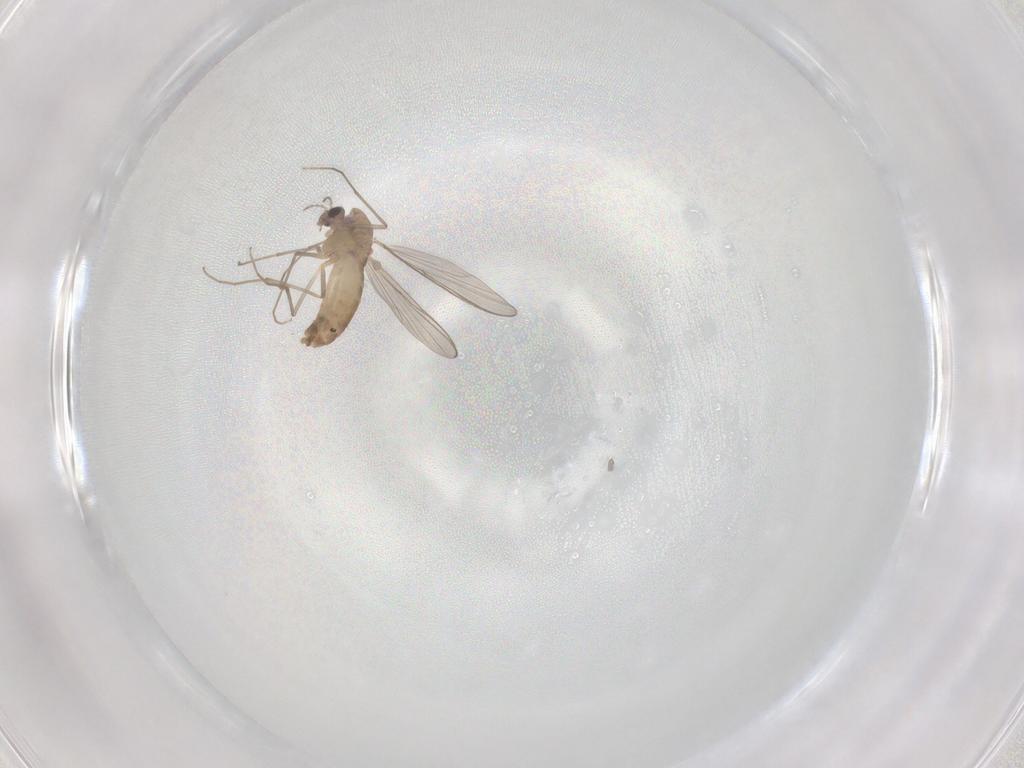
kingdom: Animalia
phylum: Arthropoda
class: Insecta
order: Diptera
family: Chironomidae
